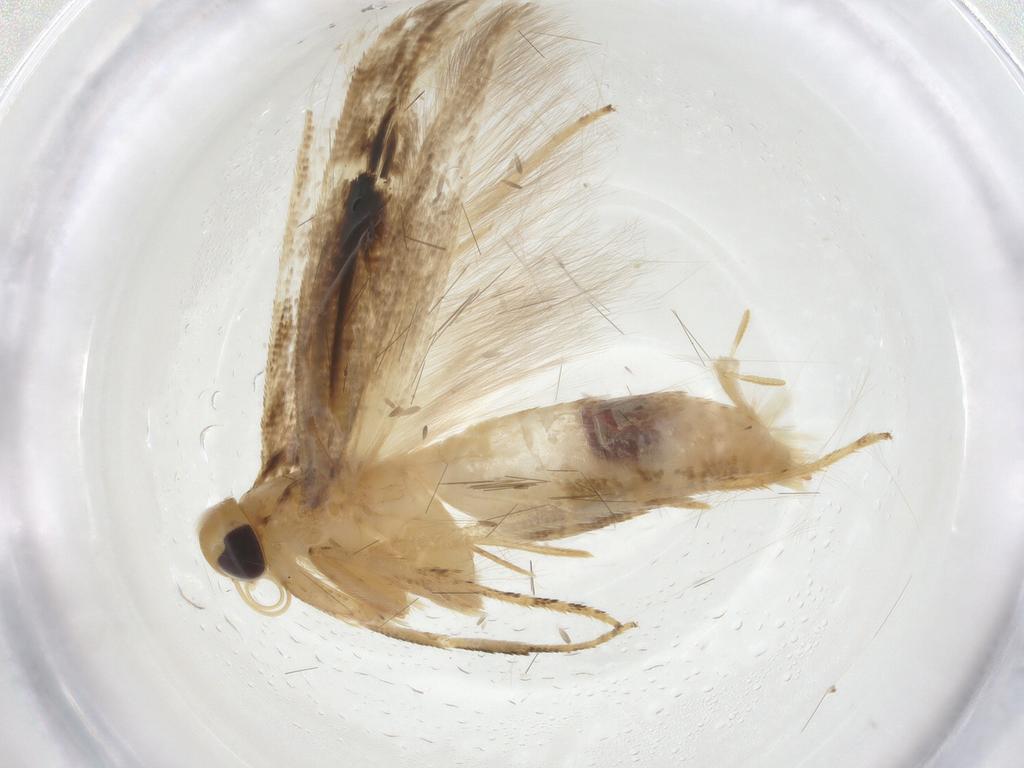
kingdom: Animalia
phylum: Arthropoda
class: Insecta
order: Lepidoptera
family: Momphidae
